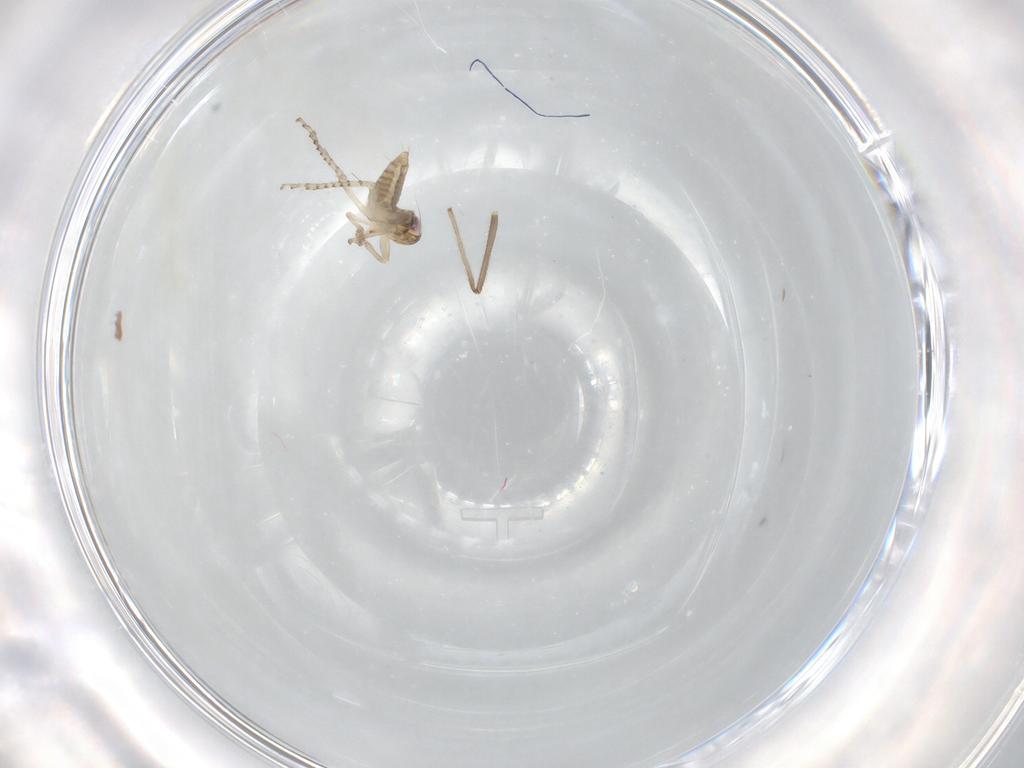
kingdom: Animalia
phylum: Arthropoda
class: Insecta
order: Hemiptera
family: Cicadellidae
